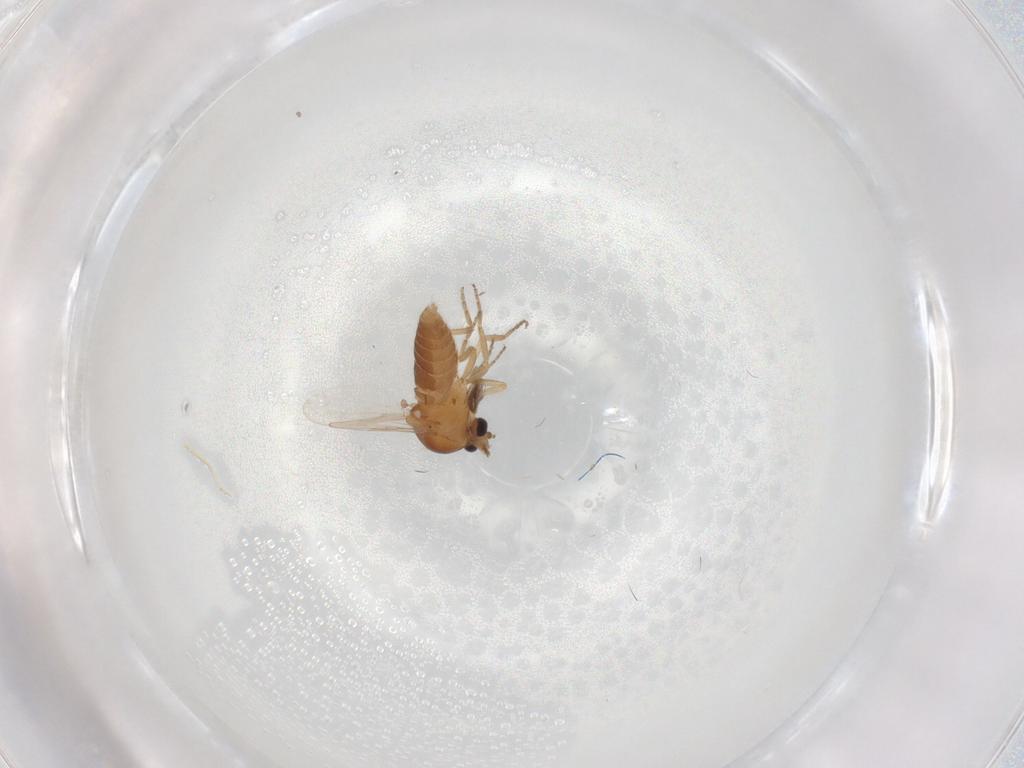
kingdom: Animalia
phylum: Arthropoda
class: Insecta
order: Diptera
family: Ceratopogonidae
